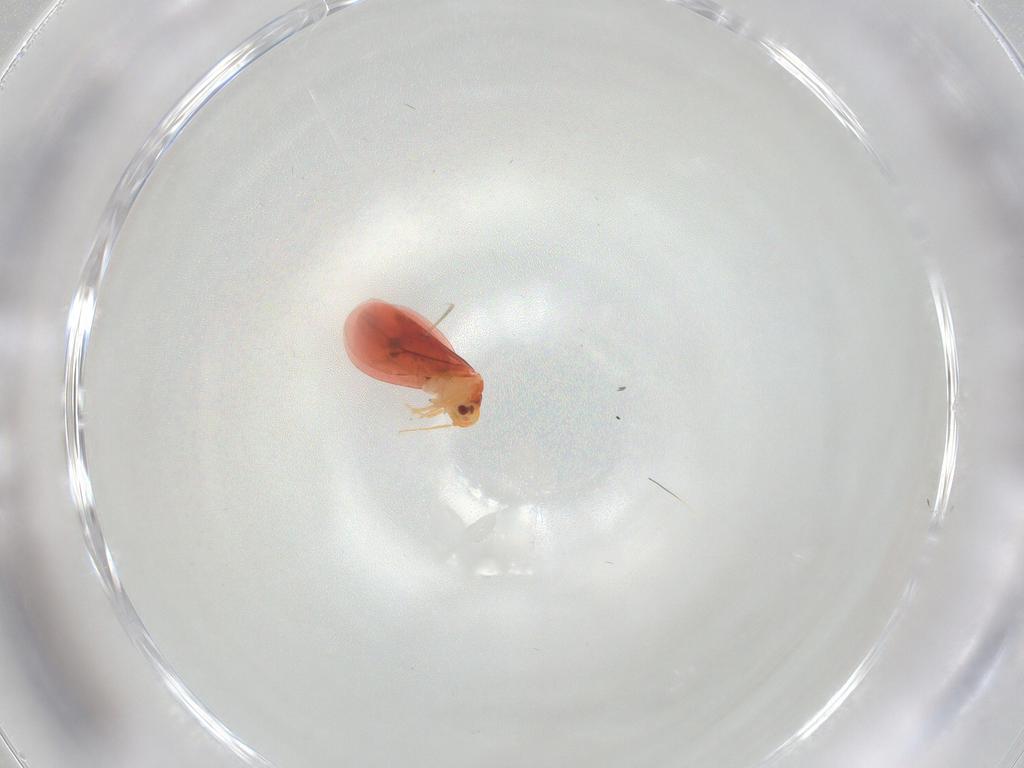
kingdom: Animalia
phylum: Arthropoda
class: Insecta
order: Hemiptera
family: Aleyrodidae
